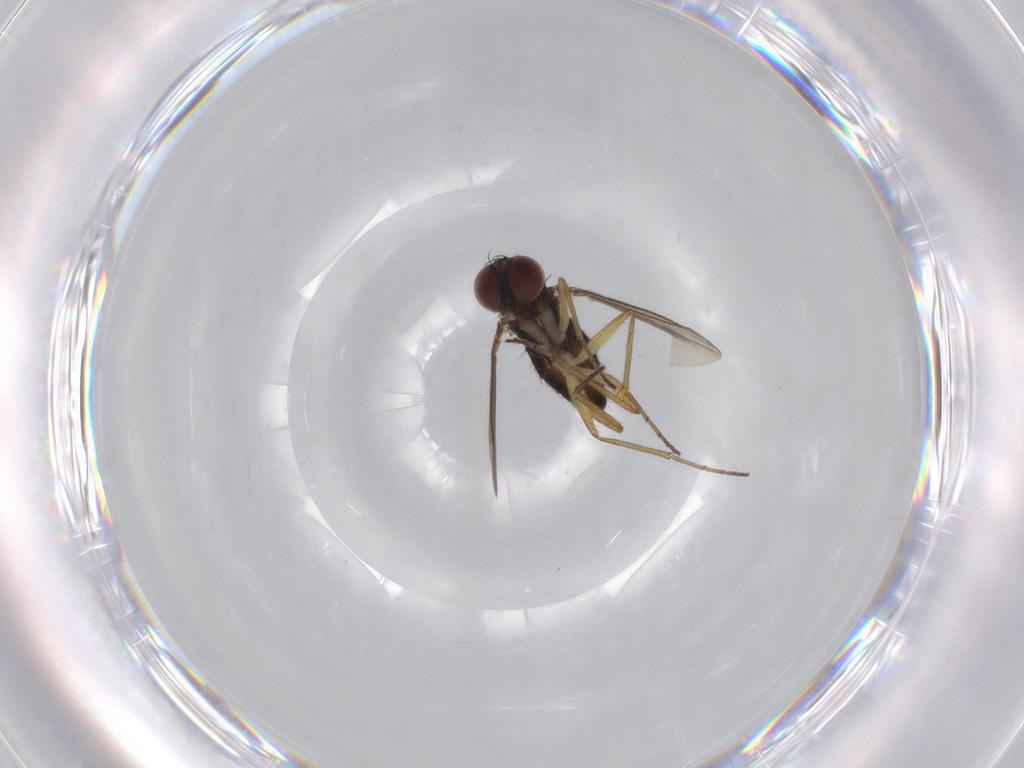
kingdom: Animalia
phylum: Arthropoda
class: Insecta
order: Diptera
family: Dolichopodidae
